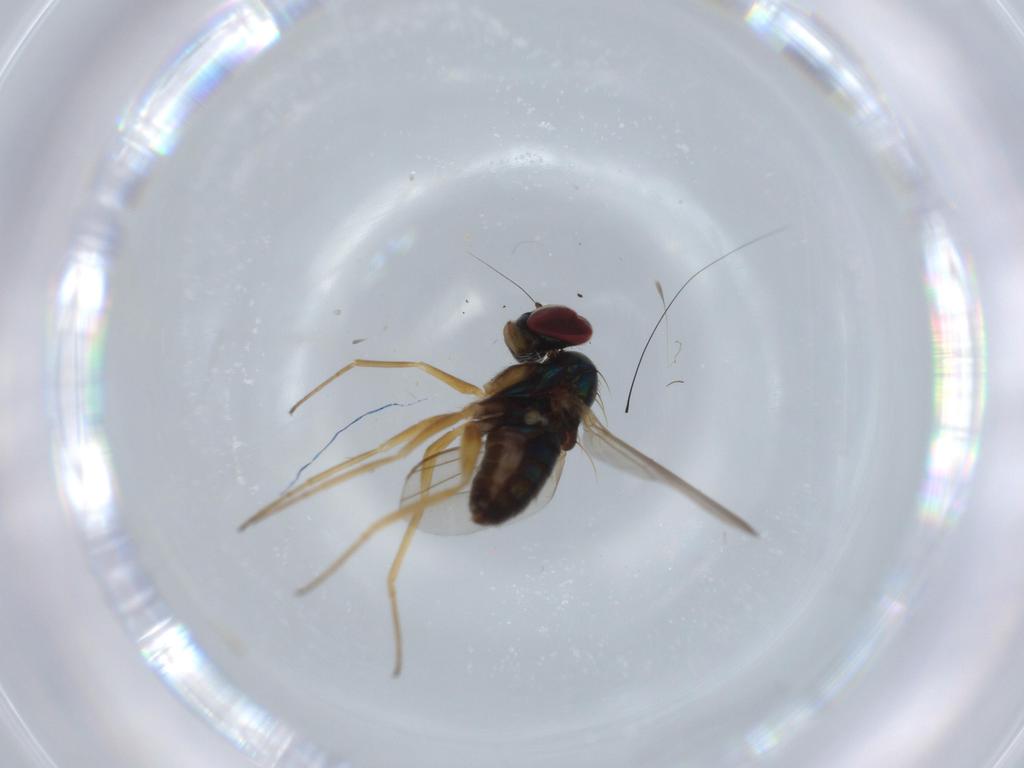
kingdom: Animalia
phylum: Arthropoda
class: Insecta
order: Diptera
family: Dolichopodidae
